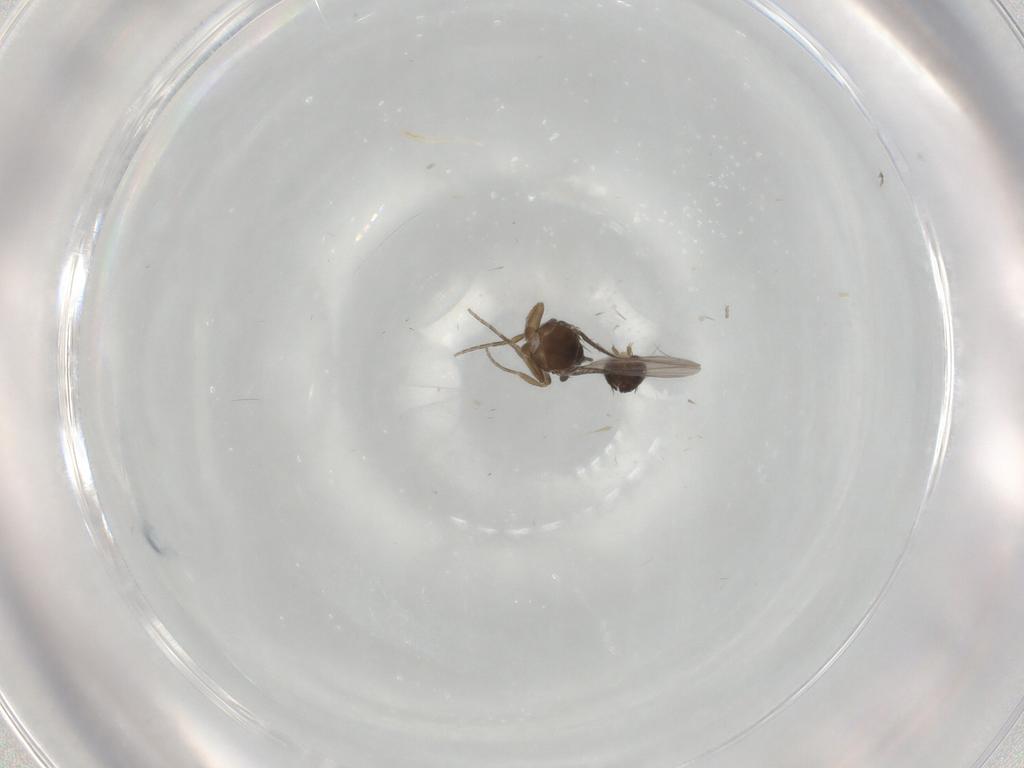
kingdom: Animalia
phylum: Arthropoda
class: Insecta
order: Diptera
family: Phoridae
